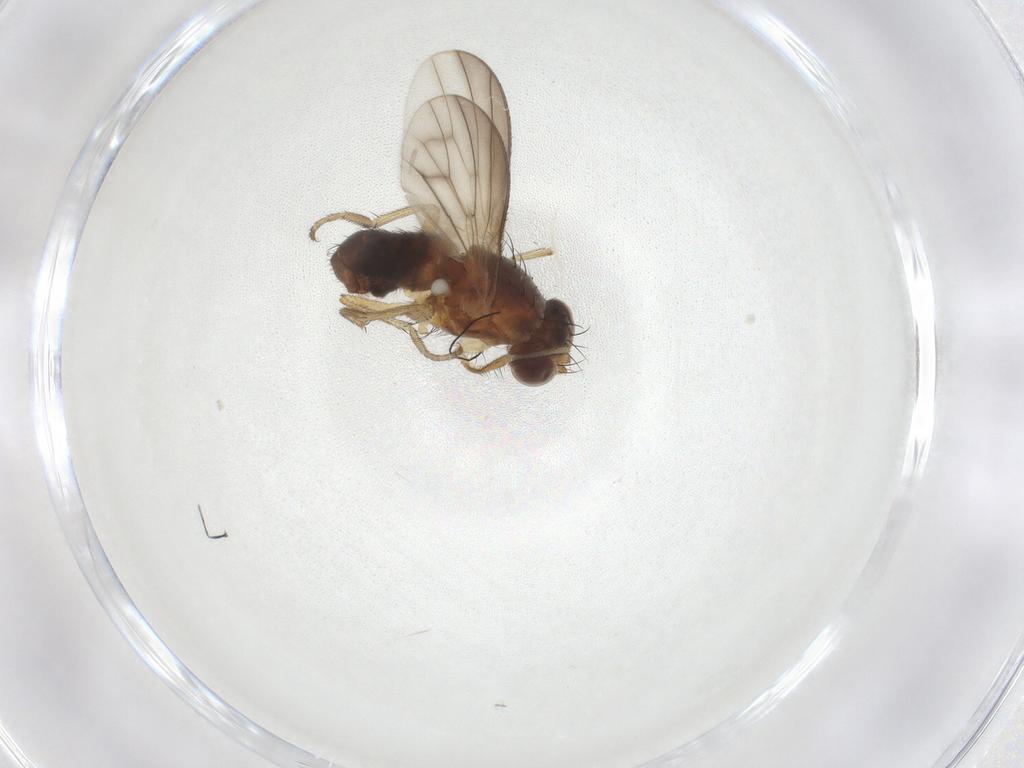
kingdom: Animalia
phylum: Arthropoda
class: Insecta
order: Diptera
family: Heleomyzidae
